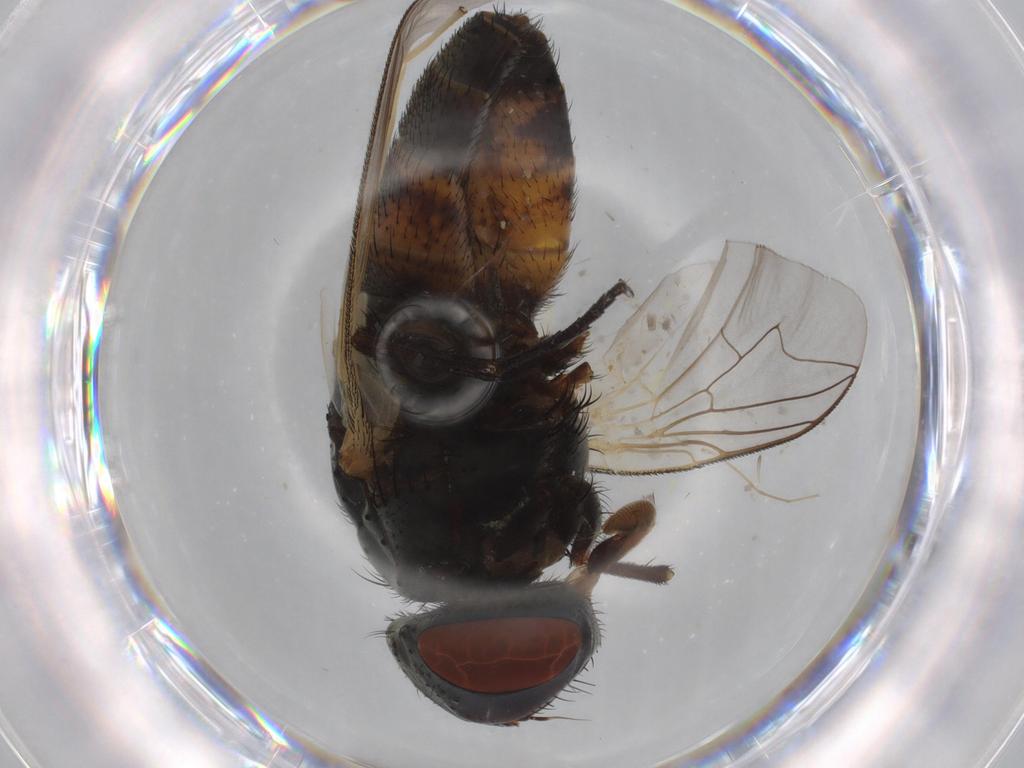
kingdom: Animalia
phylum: Arthropoda
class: Insecta
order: Diptera
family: Sarcophagidae
